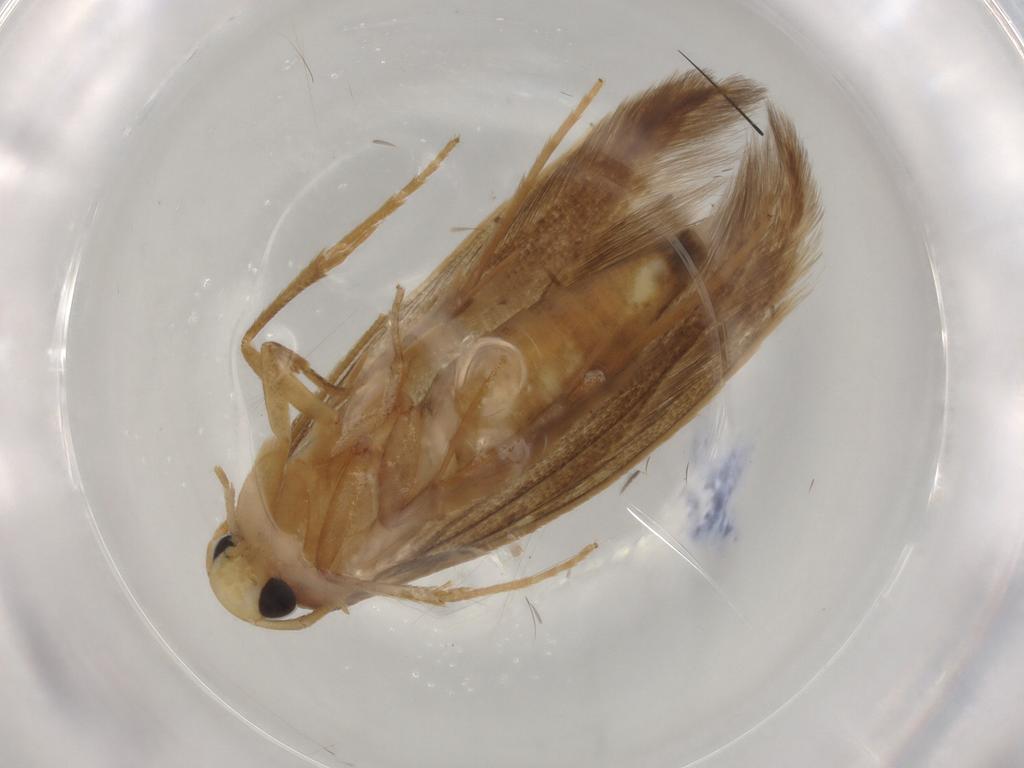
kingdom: Animalia
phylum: Arthropoda
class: Insecta
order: Lepidoptera
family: Tineidae
